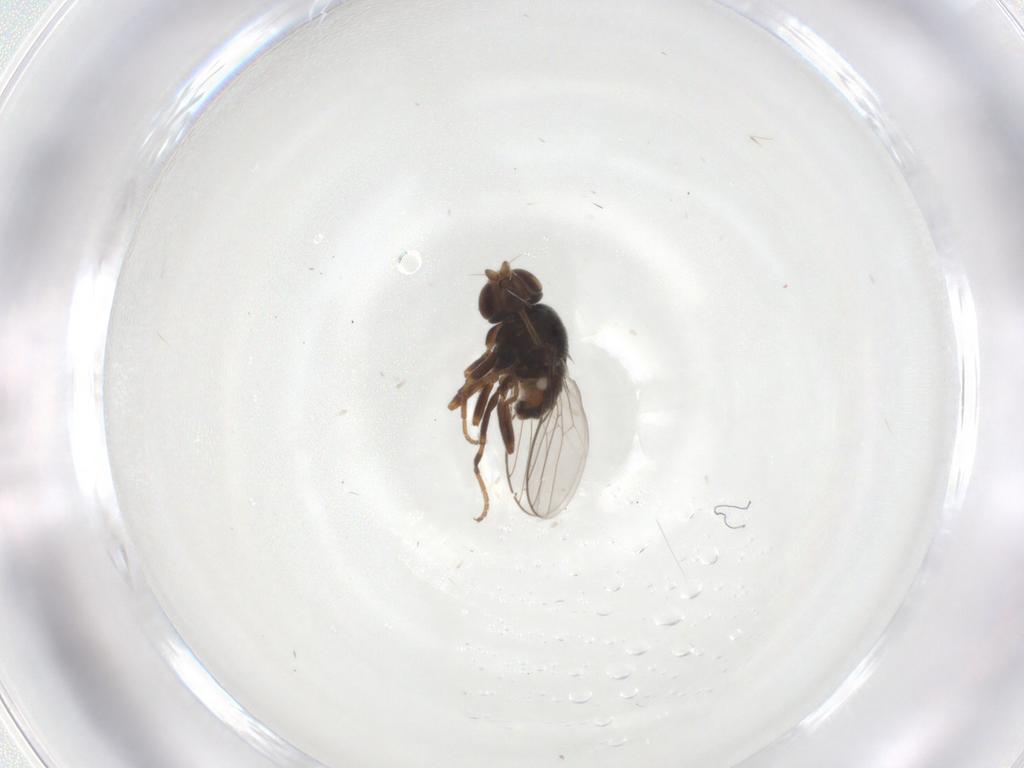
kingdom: Animalia
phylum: Arthropoda
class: Insecta
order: Diptera
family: Chloropidae
